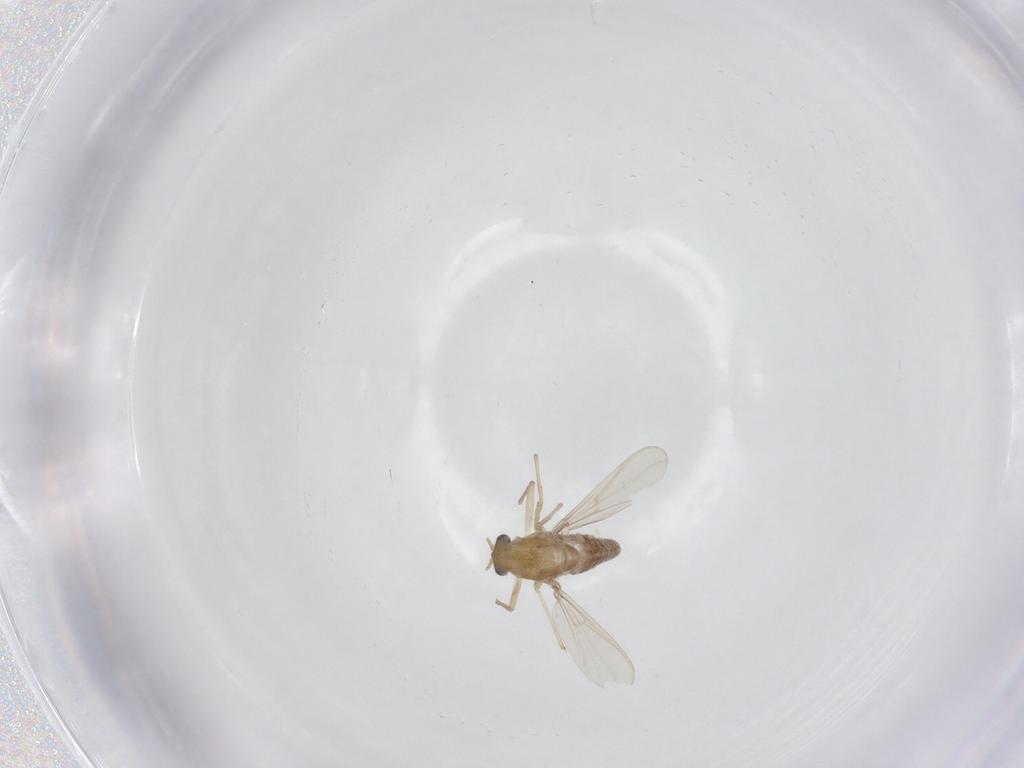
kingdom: Animalia
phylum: Arthropoda
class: Insecta
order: Diptera
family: Chironomidae
